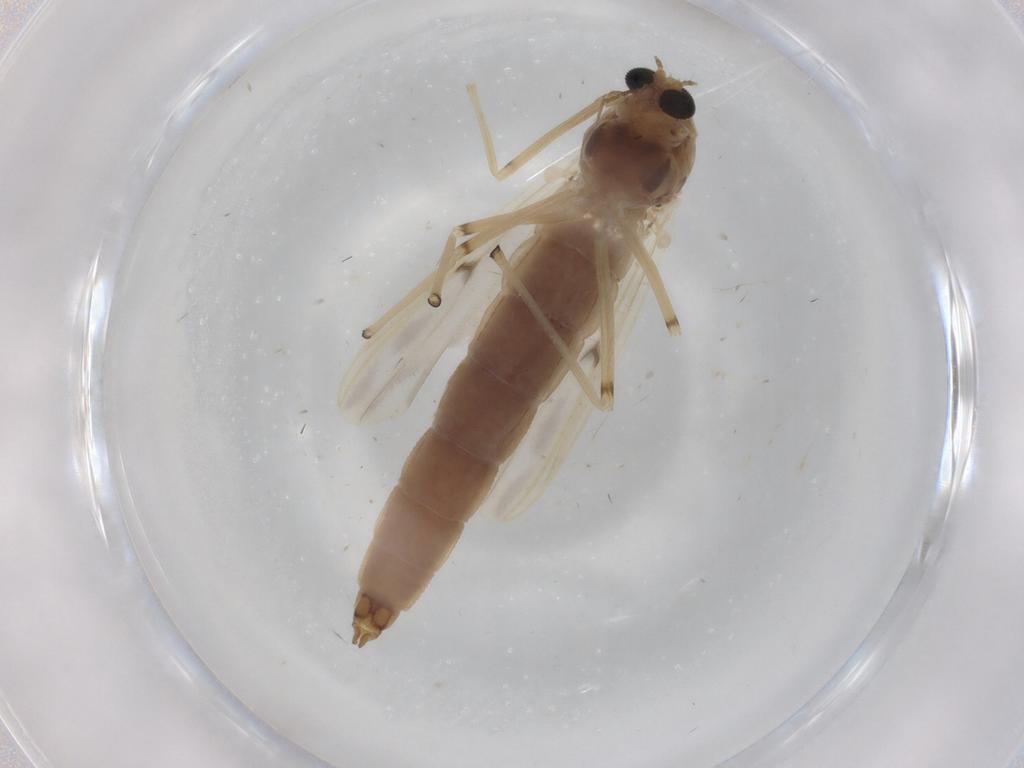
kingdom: Animalia
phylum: Arthropoda
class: Insecta
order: Diptera
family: Chironomidae
